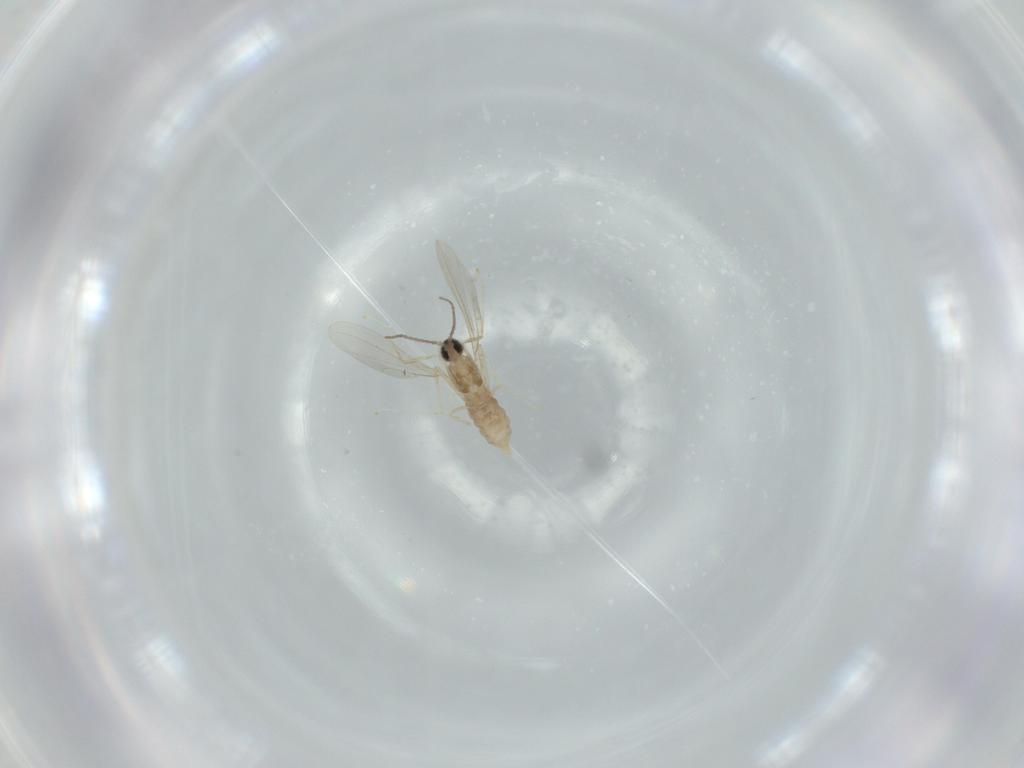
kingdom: Animalia
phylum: Arthropoda
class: Insecta
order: Diptera
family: Cecidomyiidae
